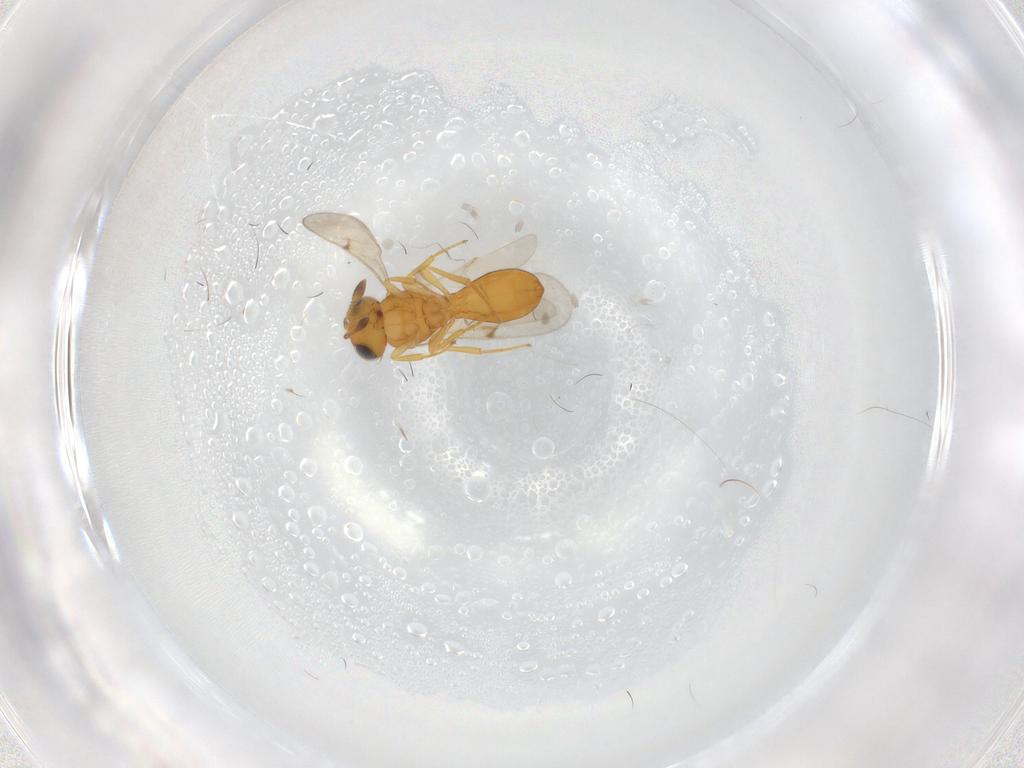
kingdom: Animalia
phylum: Arthropoda
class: Insecta
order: Hymenoptera
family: Scelionidae
